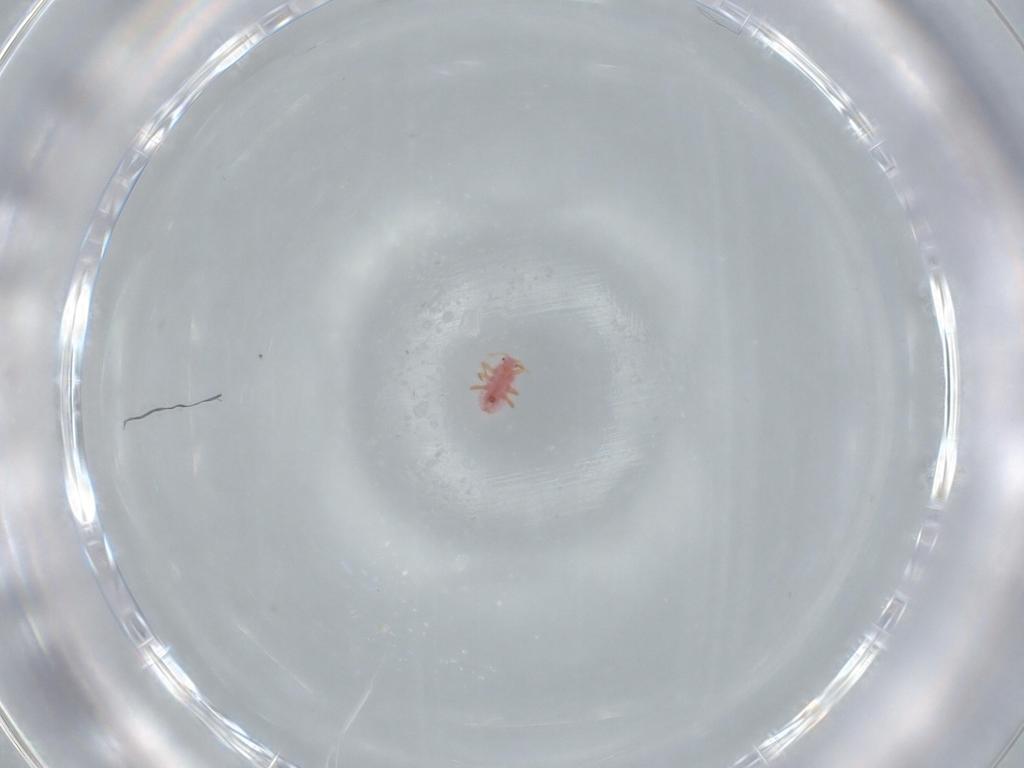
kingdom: Animalia
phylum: Arthropoda
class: Insecta
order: Hemiptera
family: Pseudococcidae
